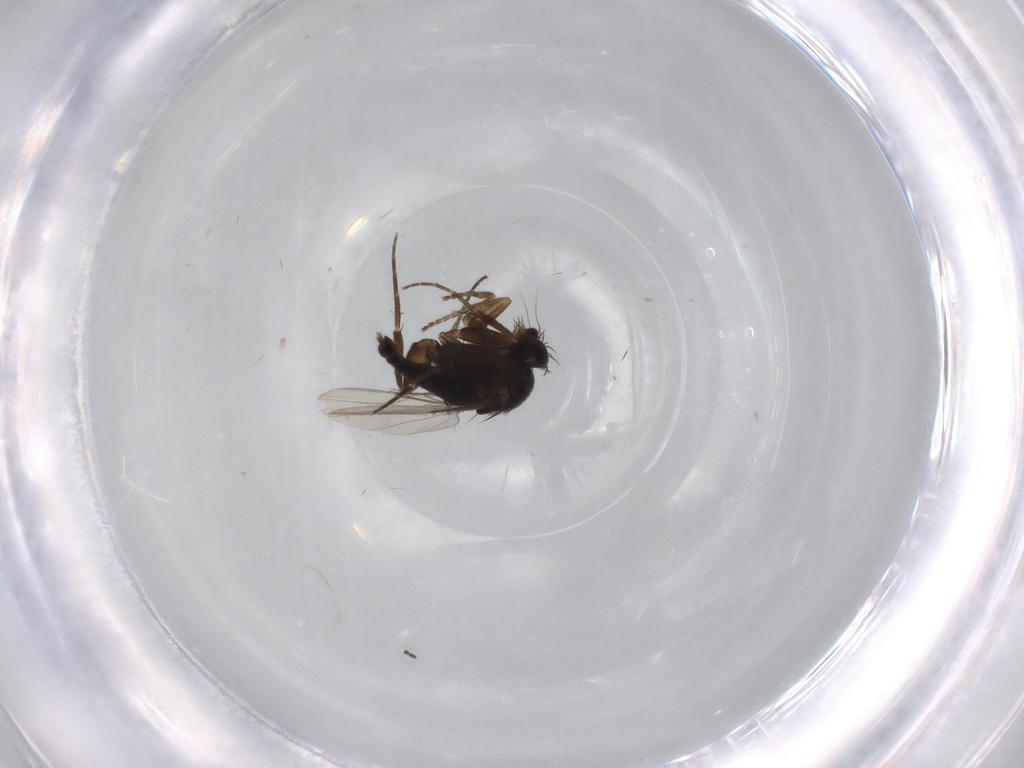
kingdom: Animalia
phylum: Arthropoda
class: Insecta
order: Diptera
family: Phoridae
